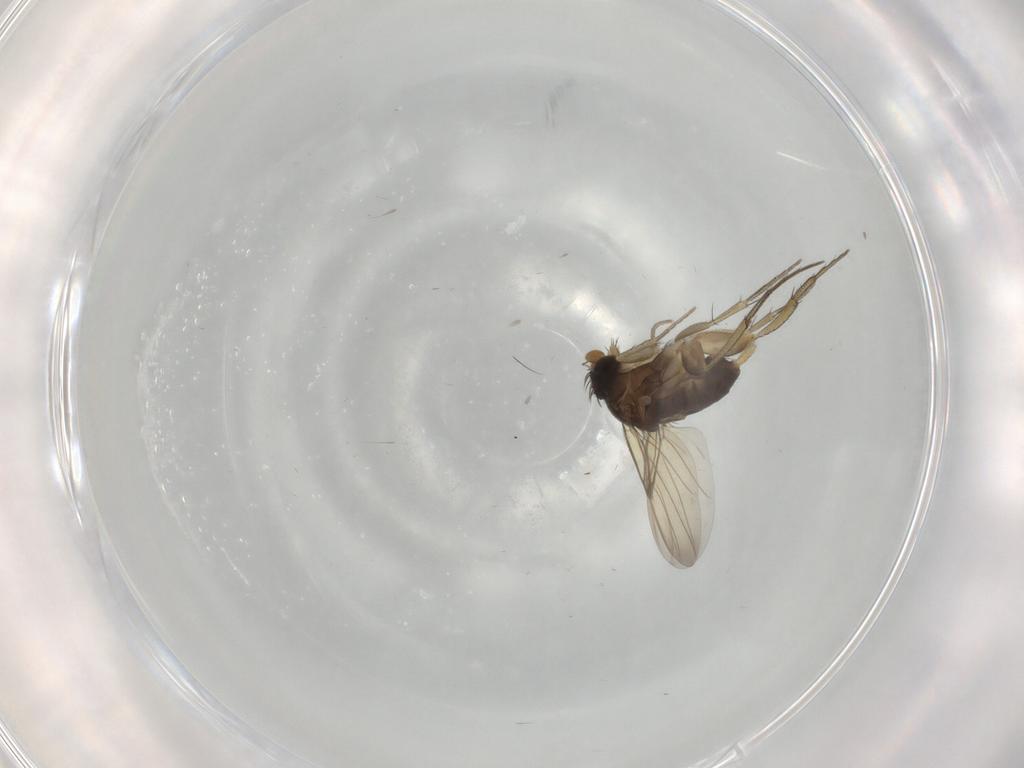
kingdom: Animalia
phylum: Arthropoda
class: Insecta
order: Diptera
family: Phoridae
